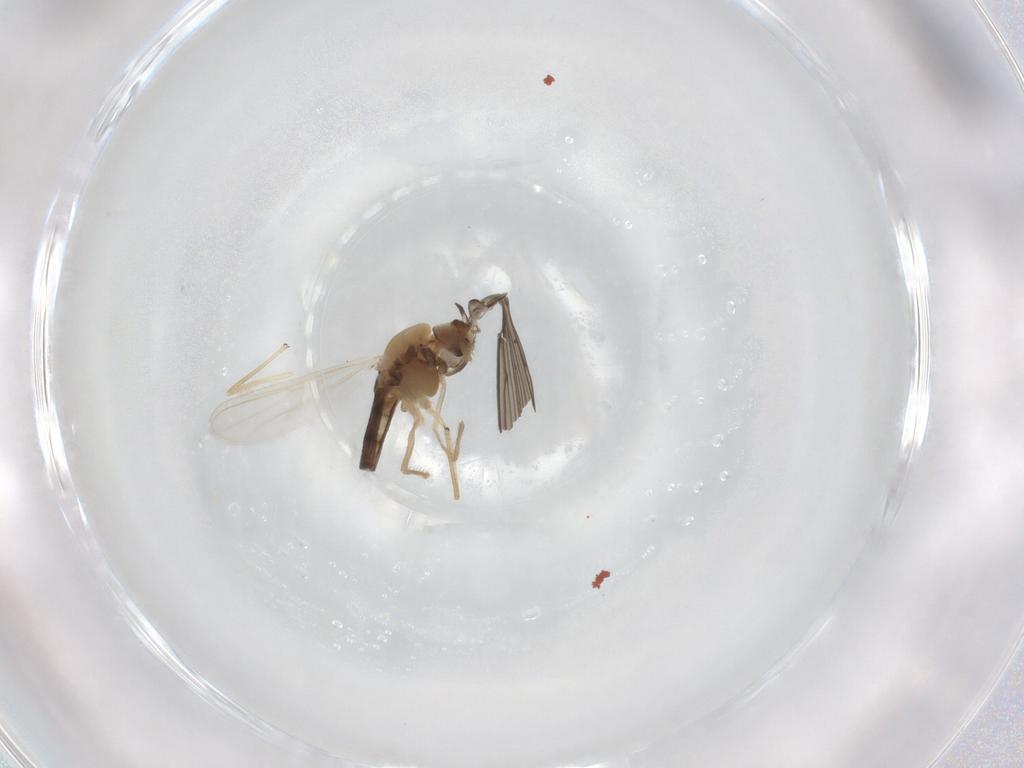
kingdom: Animalia
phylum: Arthropoda
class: Insecta
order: Diptera
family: Chironomidae
